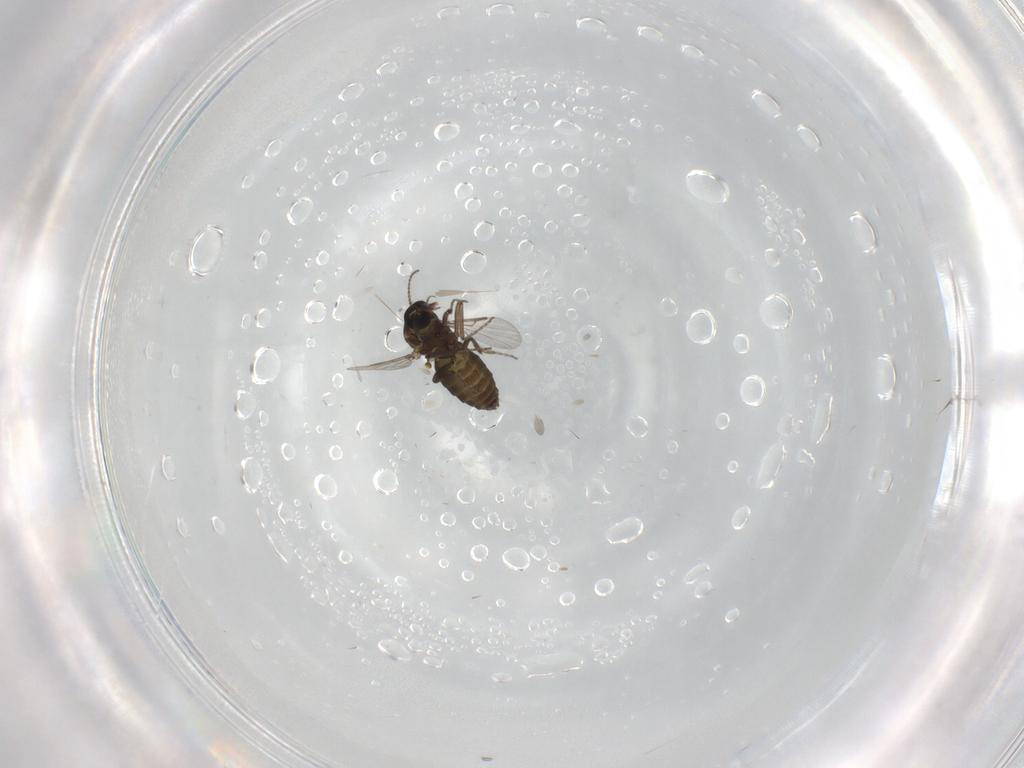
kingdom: Animalia
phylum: Arthropoda
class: Insecta
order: Diptera
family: Ceratopogonidae
